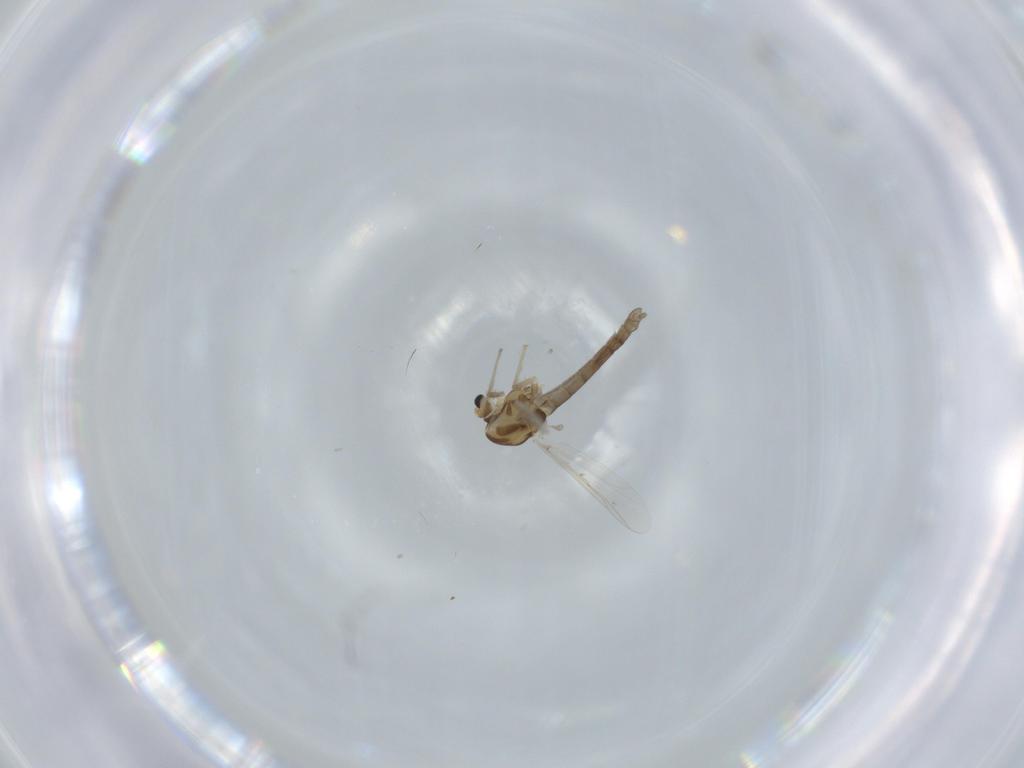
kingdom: Animalia
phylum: Arthropoda
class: Insecta
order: Diptera
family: Chironomidae
